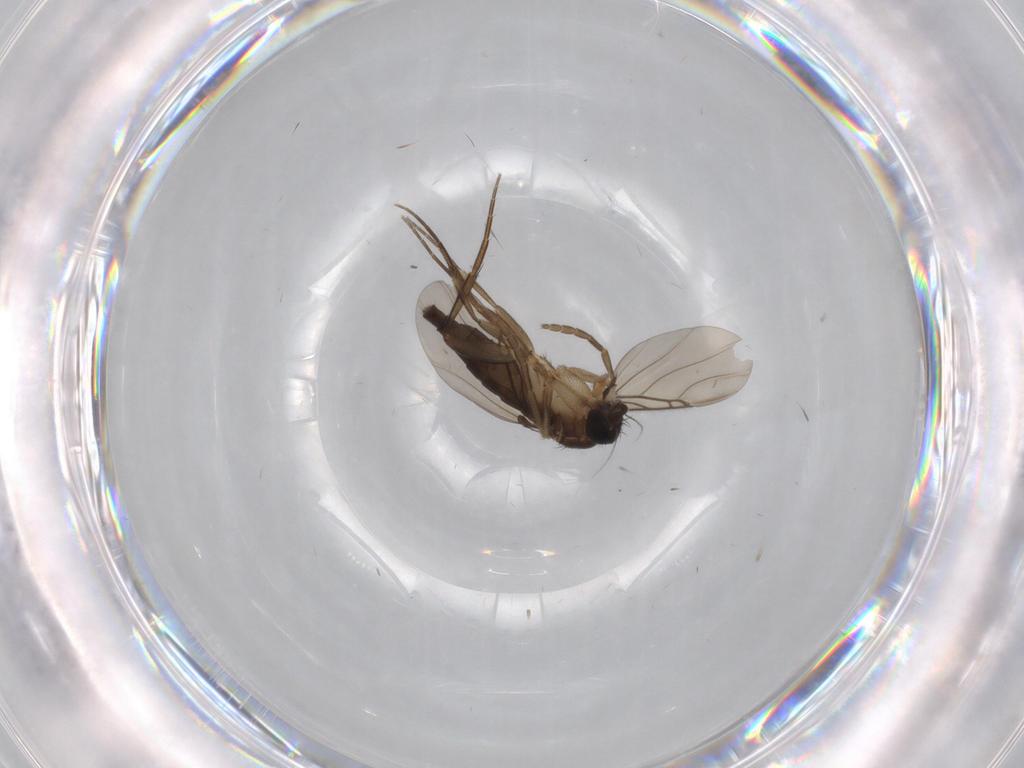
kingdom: Animalia
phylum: Arthropoda
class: Insecta
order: Diptera
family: Phoridae
